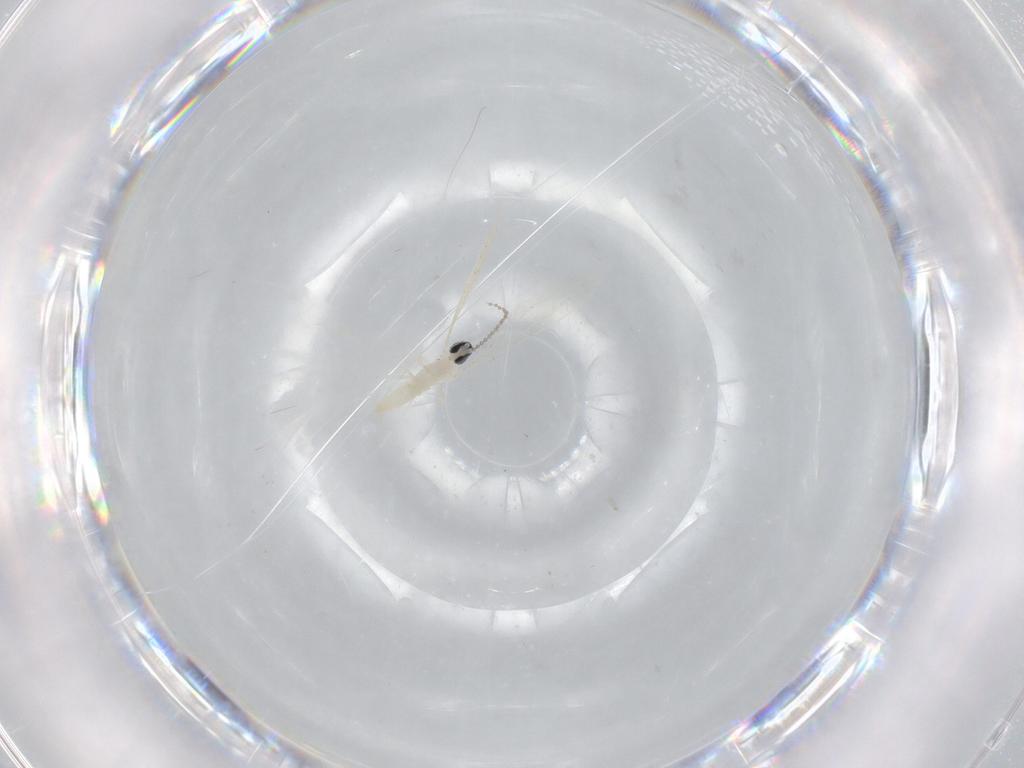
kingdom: Animalia
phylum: Arthropoda
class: Insecta
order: Diptera
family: Sciaridae
